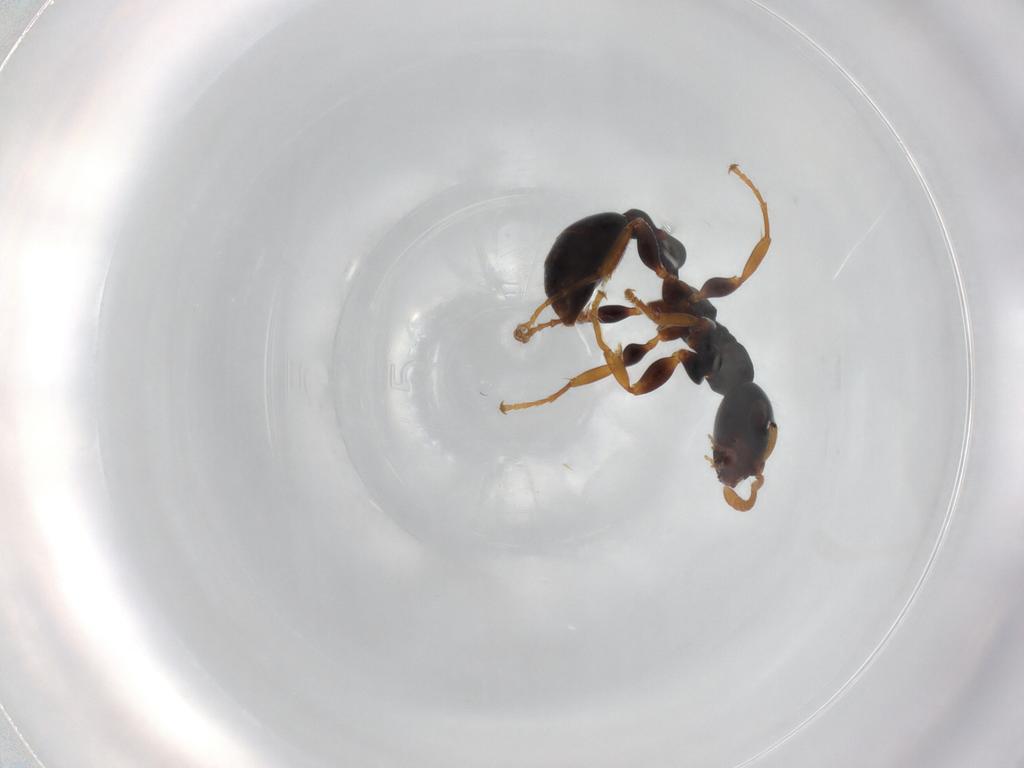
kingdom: Animalia
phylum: Arthropoda
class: Insecta
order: Hymenoptera
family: Formicidae
